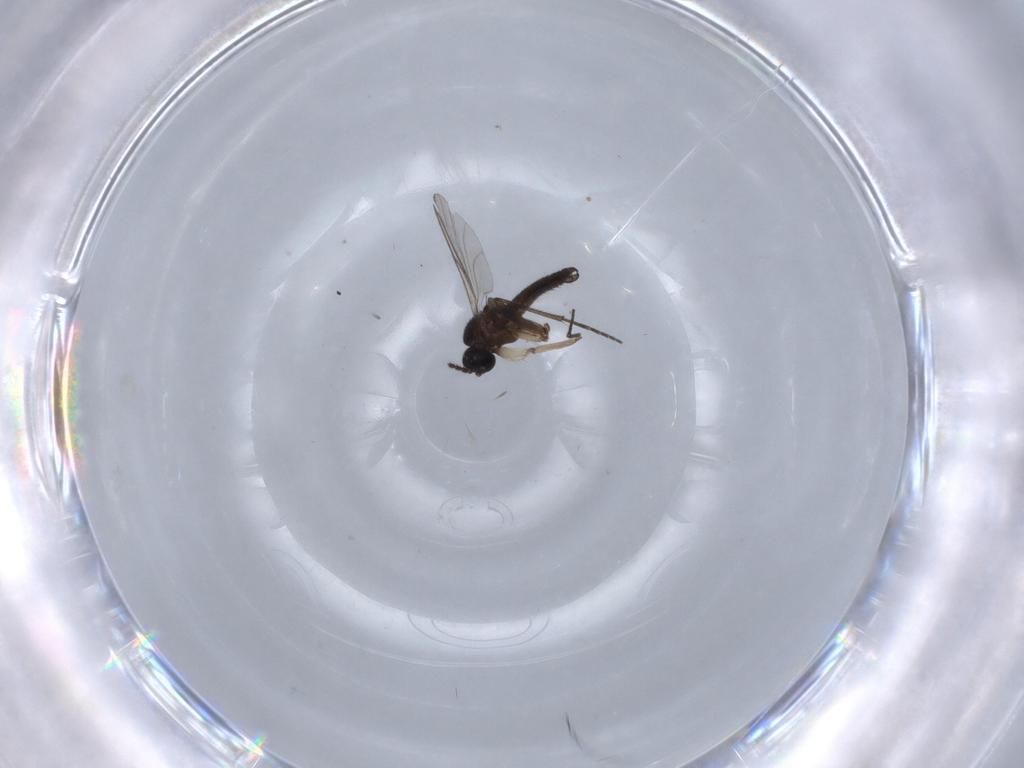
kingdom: Animalia
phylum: Arthropoda
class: Insecta
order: Diptera
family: Sciaridae
